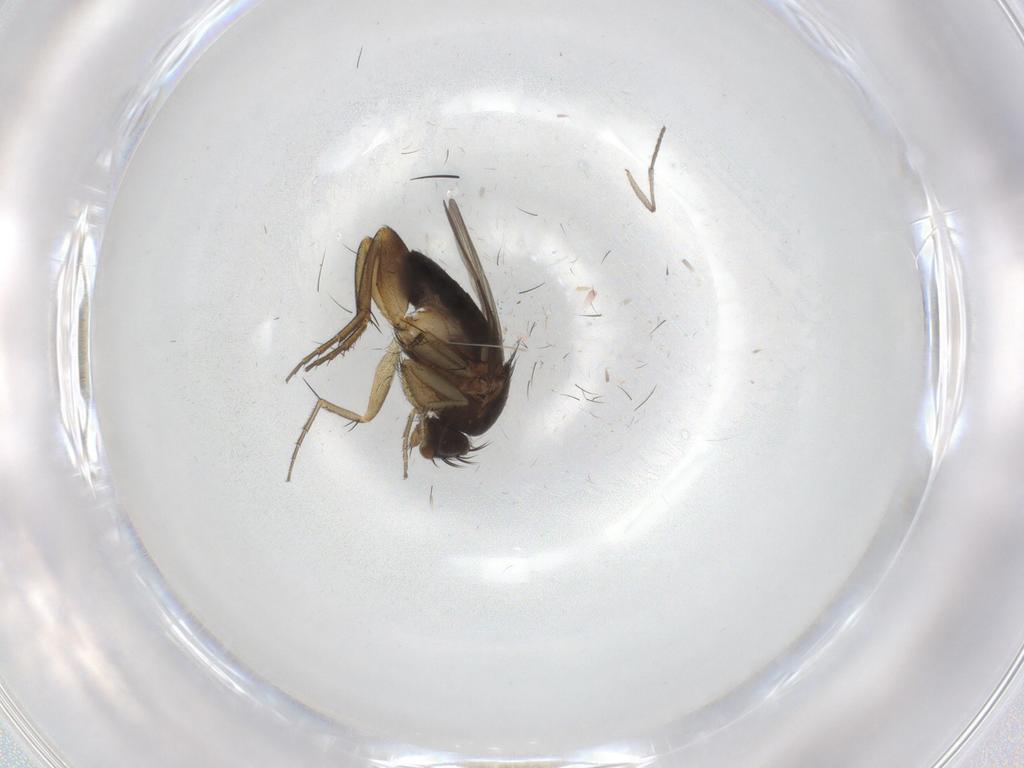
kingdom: Animalia
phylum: Arthropoda
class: Insecta
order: Diptera
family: Phoridae
